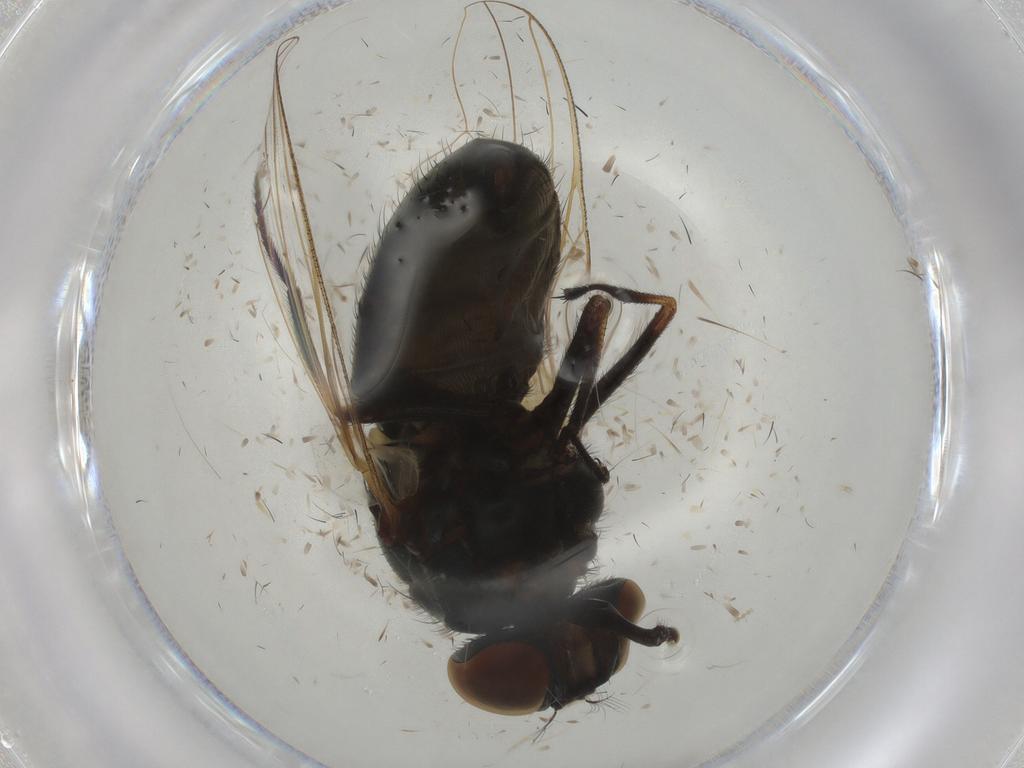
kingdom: Animalia
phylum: Arthropoda
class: Insecta
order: Diptera
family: Muscidae
